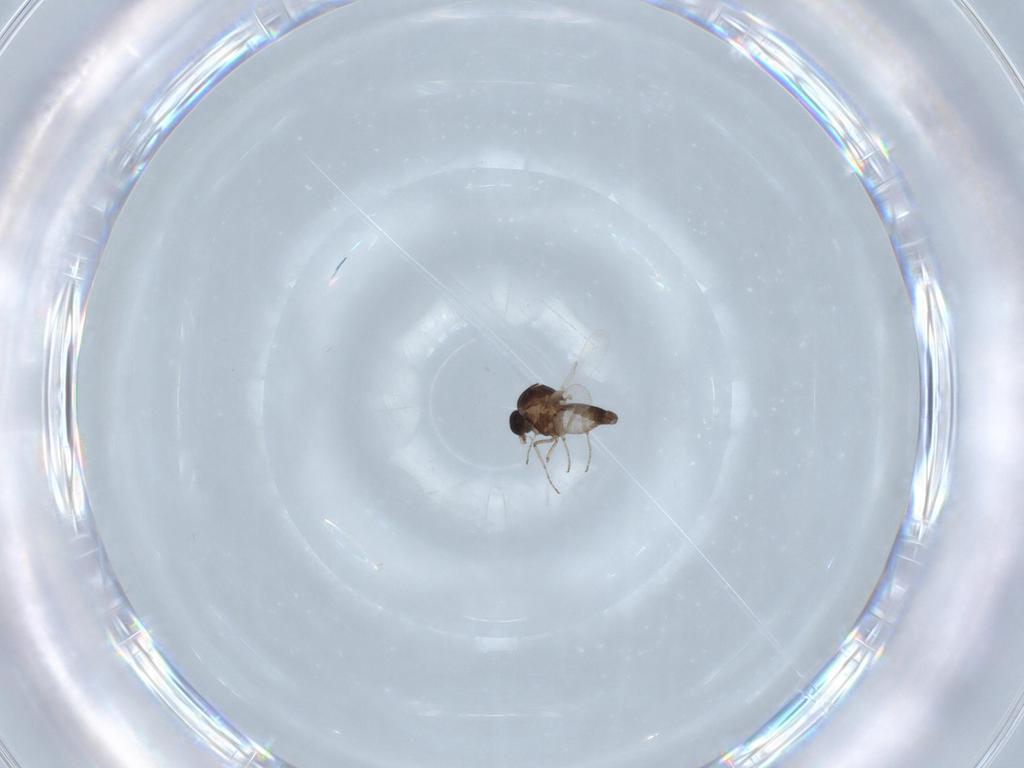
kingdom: Animalia
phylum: Arthropoda
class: Insecta
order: Diptera
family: Ceratopogonidae
